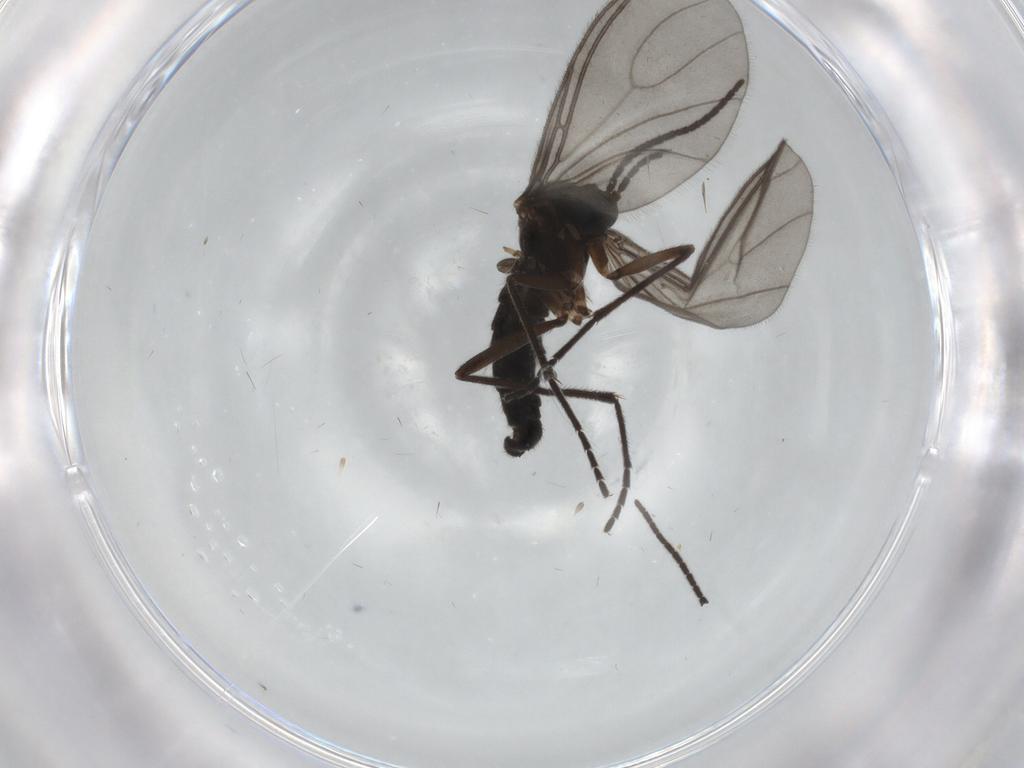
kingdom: Animalia
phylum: Arthropoda
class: Insecta
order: Diptera
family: Sciaridae
